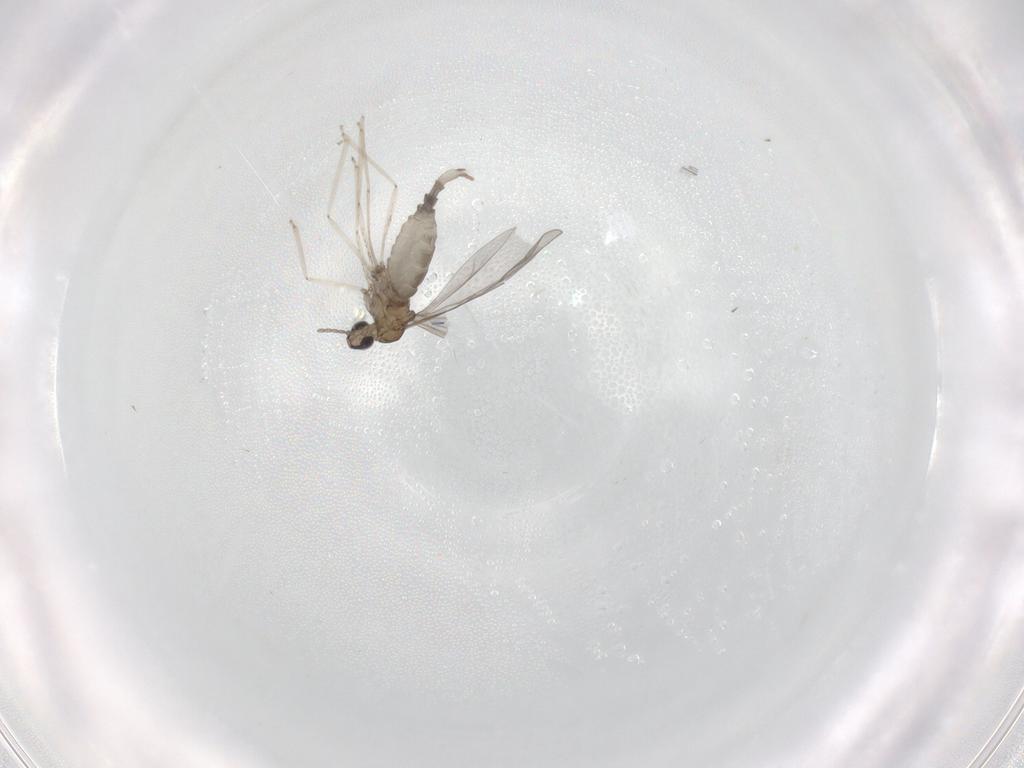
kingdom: Animalia
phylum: Arthropoda
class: Insecta
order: Diptera
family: Cecidomyiidae
